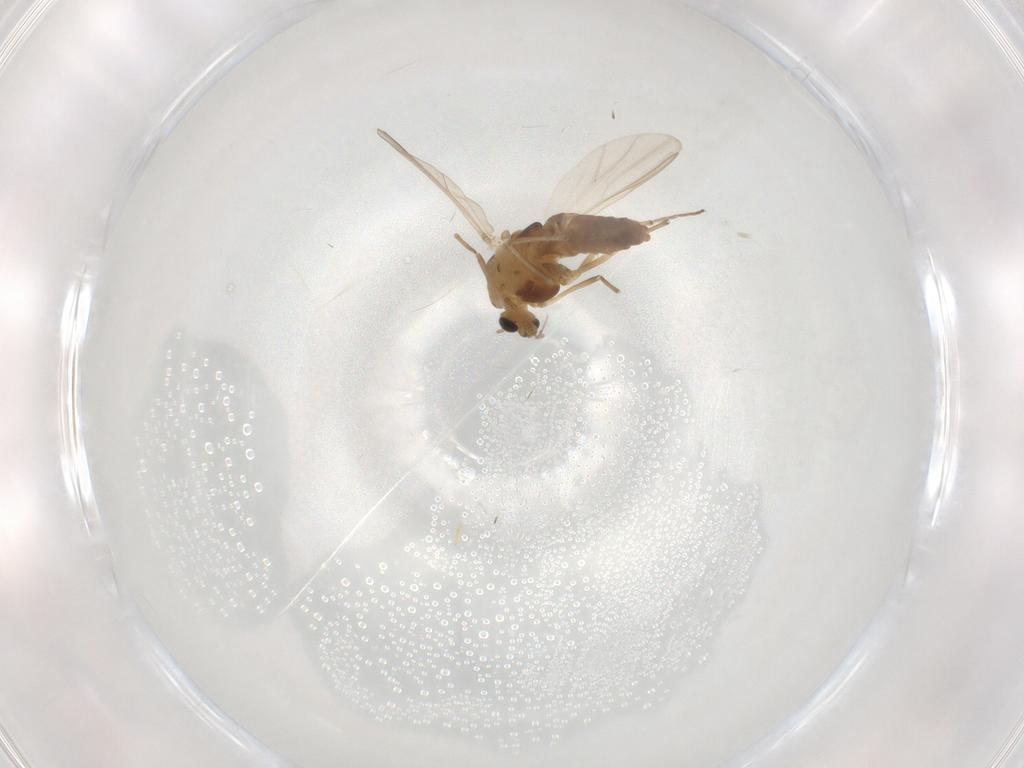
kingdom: Animalia
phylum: Arthropoda
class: Insecta
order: Diptera
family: Chironomidae
